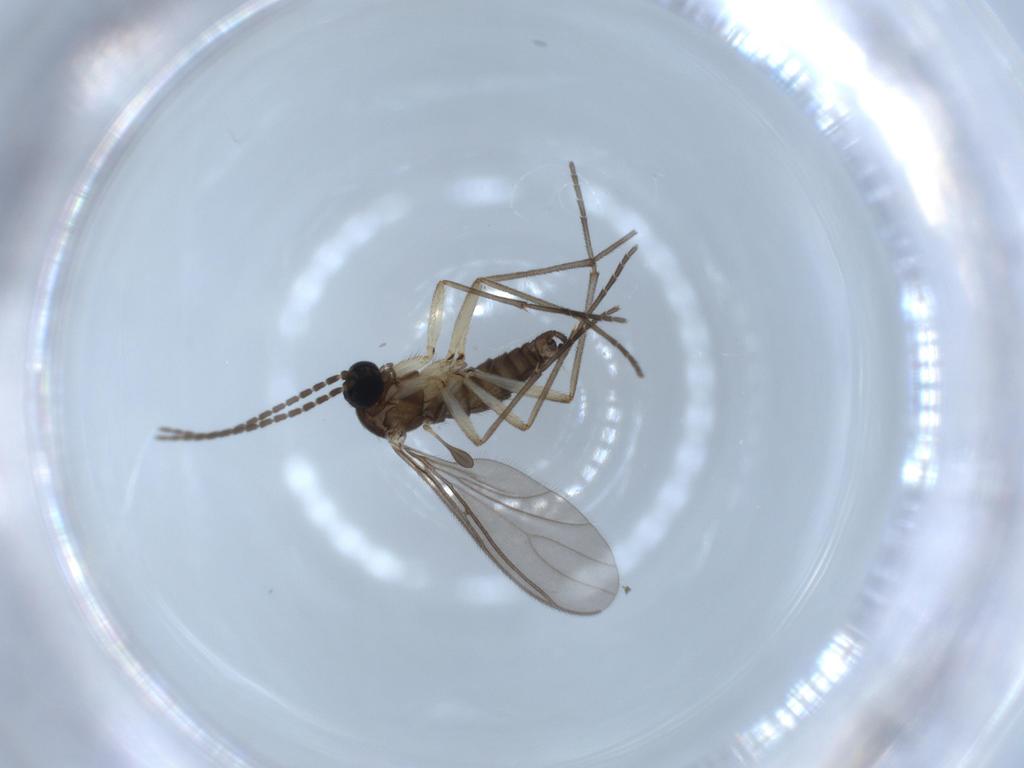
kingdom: Animalia
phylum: Arthropoda
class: Insecta
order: Diptera
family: Sciaridae
